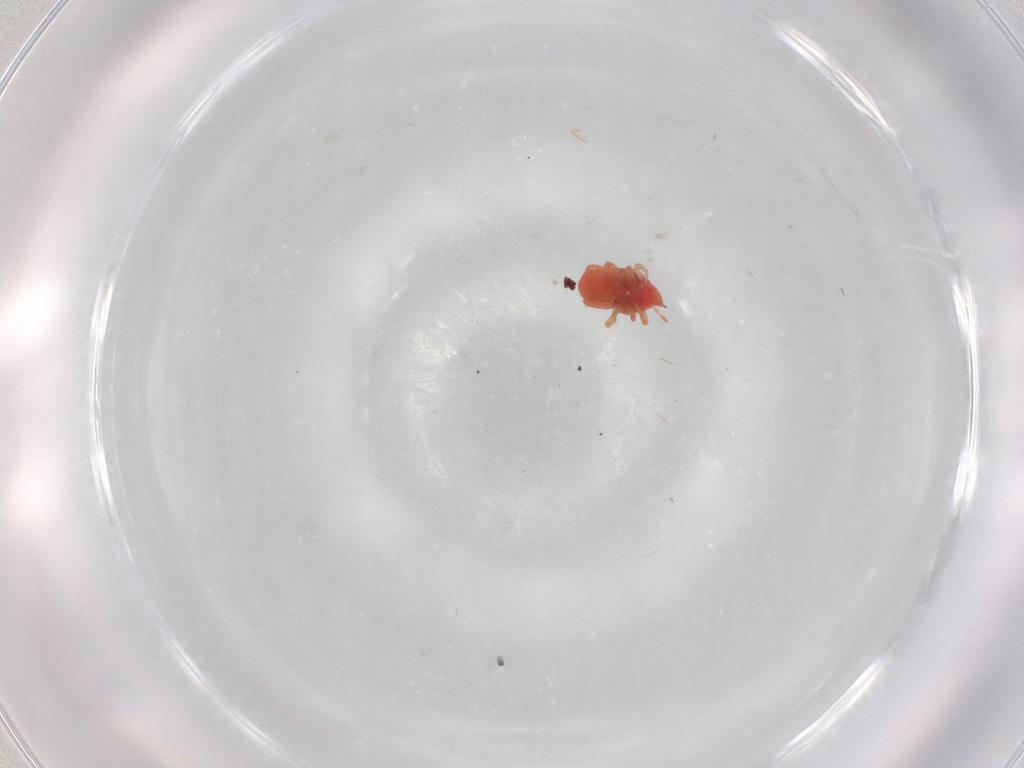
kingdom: Animalia
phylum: Arthropoda
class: Arachnida
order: Trombidiformes
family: Bdellidae
